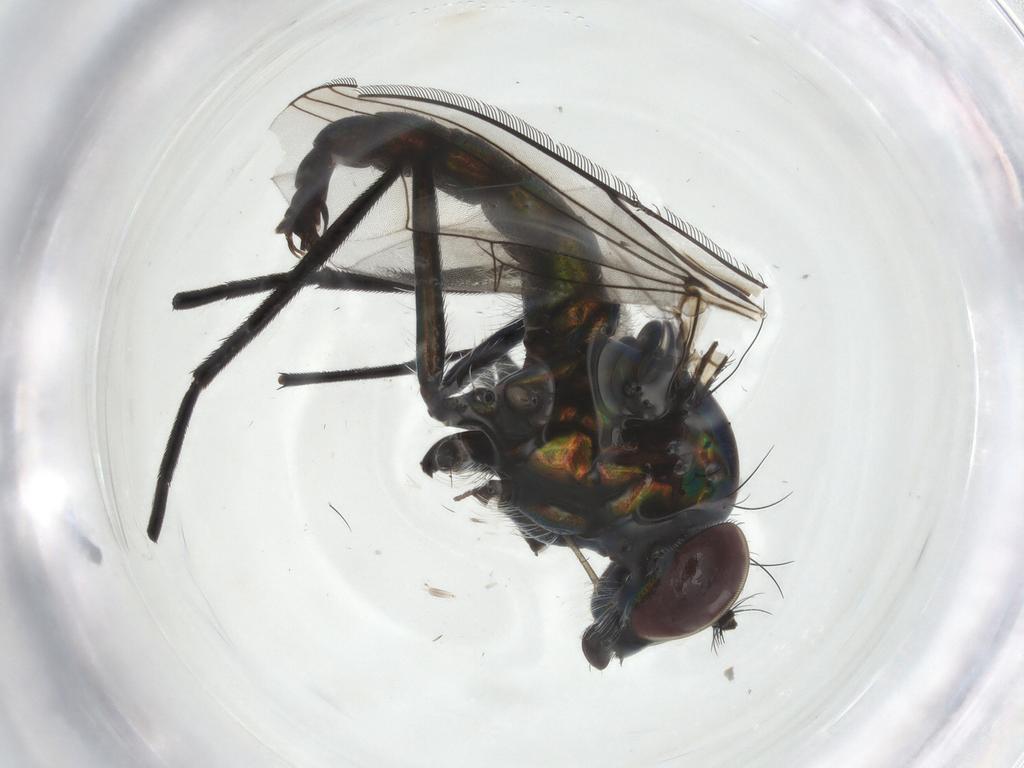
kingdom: Animalia
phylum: Arthropoda
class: Insecta
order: Diptera
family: Dolichopodidae
